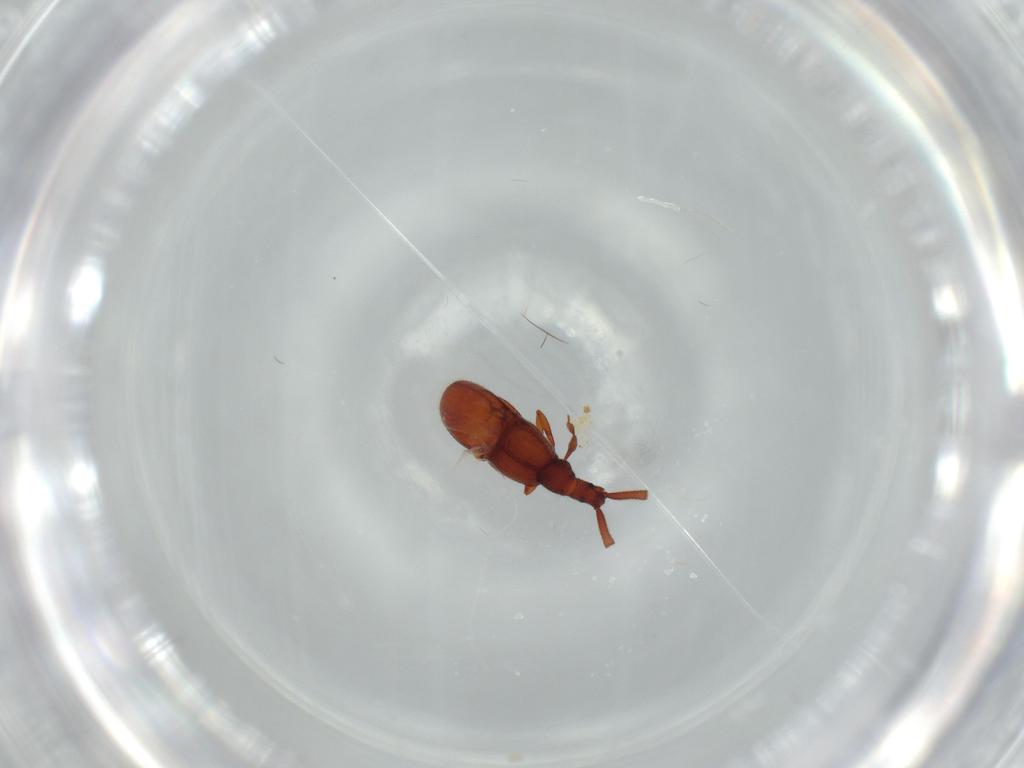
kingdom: Animalia
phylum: Arthropoda
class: Insecta
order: Coleoptera
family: Staphylinidae
